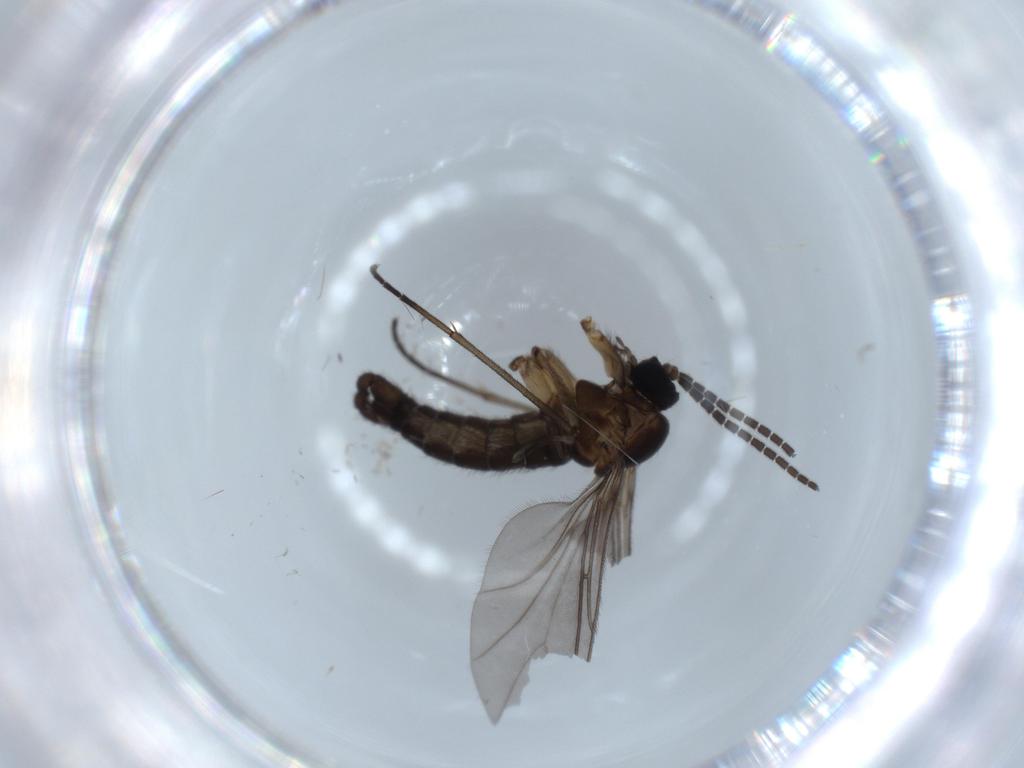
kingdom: Animalia
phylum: Arthropoda
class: Insecta
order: Diptera
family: Sciaridae
